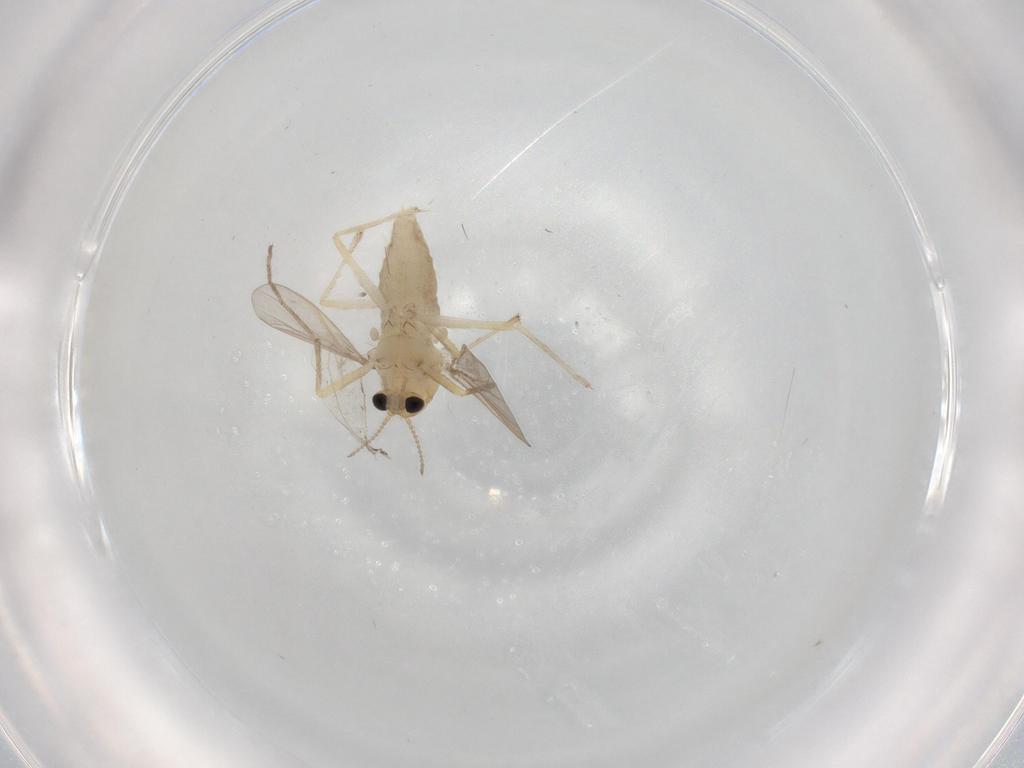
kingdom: Animalia
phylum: Arthropoda
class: Insecta
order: Diptera
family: Chironomidae
